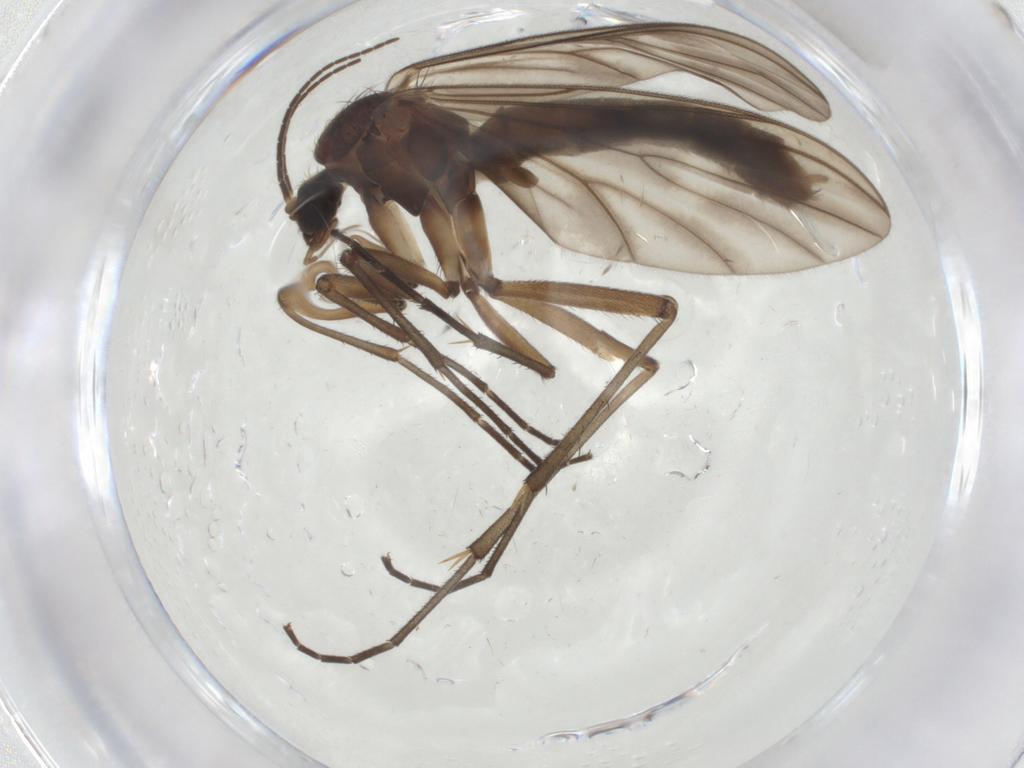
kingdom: Animalia
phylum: Arthropoda
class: Insecta
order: Diptera
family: Mycetophilidae
